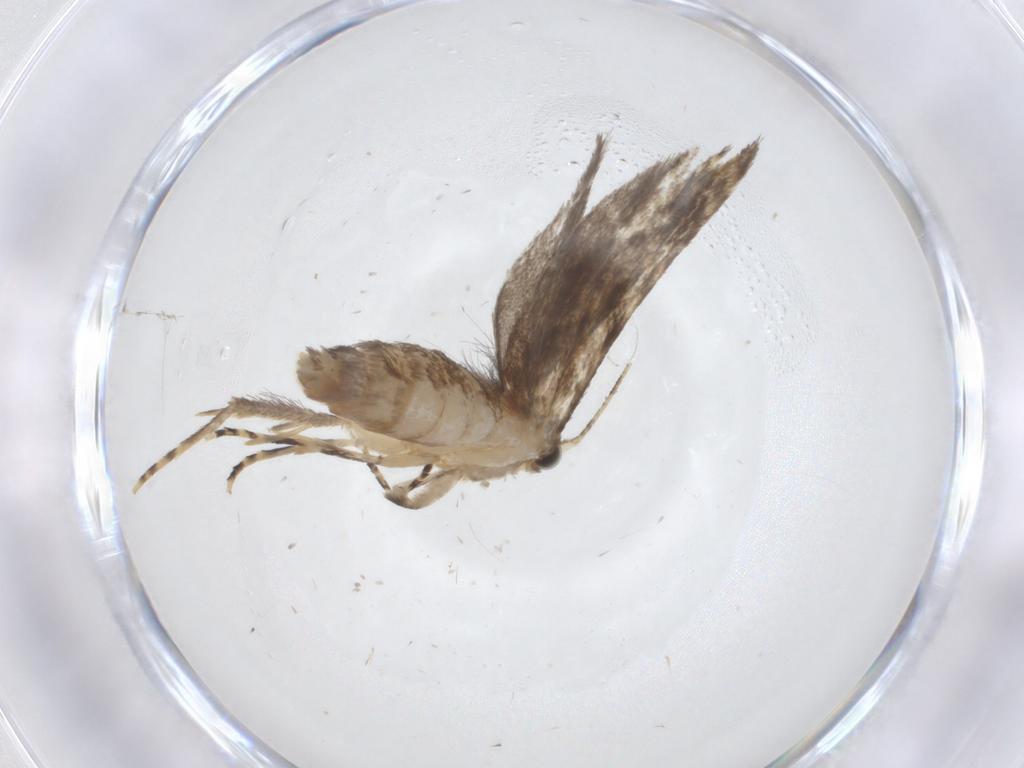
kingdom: Animalia
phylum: Arthropoda
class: Insecta
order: Lepidoptera
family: Tineidae
